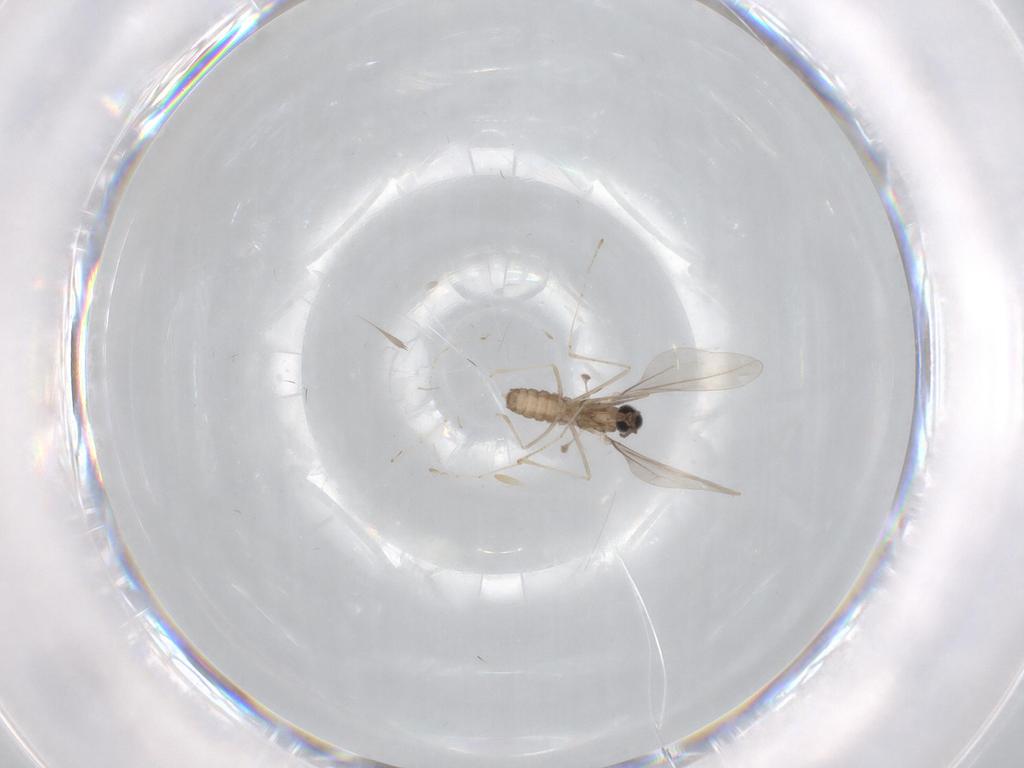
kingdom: Animalia
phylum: Arthropoda
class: Insecta
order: Diptera
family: Cecidomyiidae
